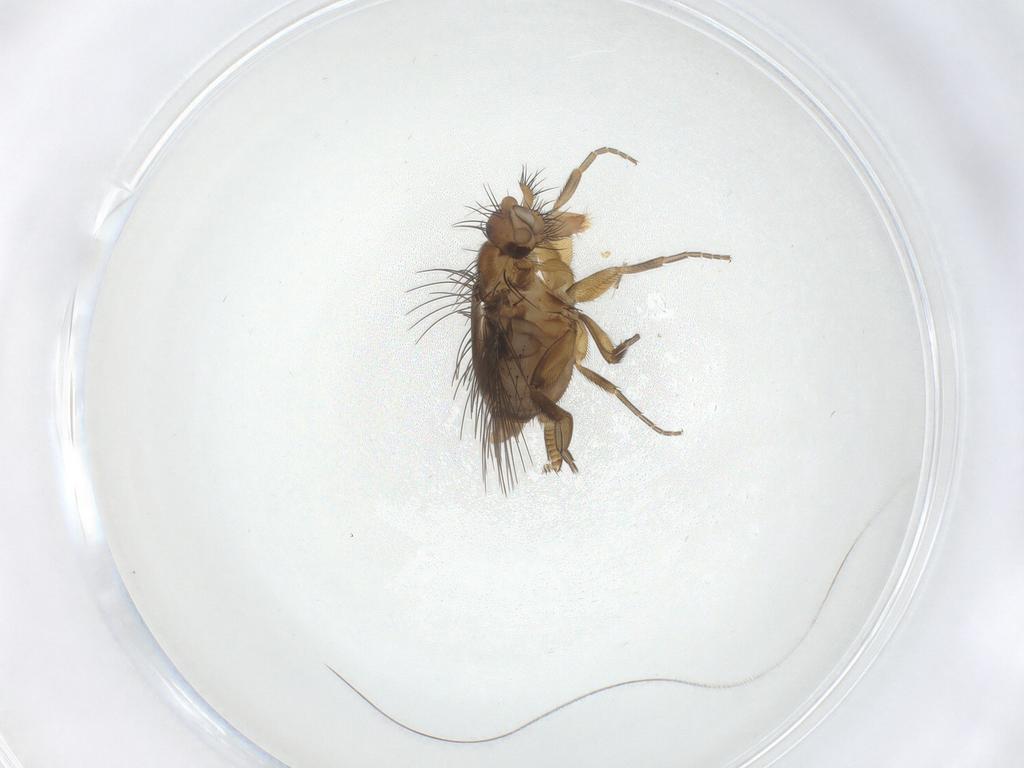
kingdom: Animalia
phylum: Arthropoda
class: Insecta
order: Diptera
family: Phoridae
